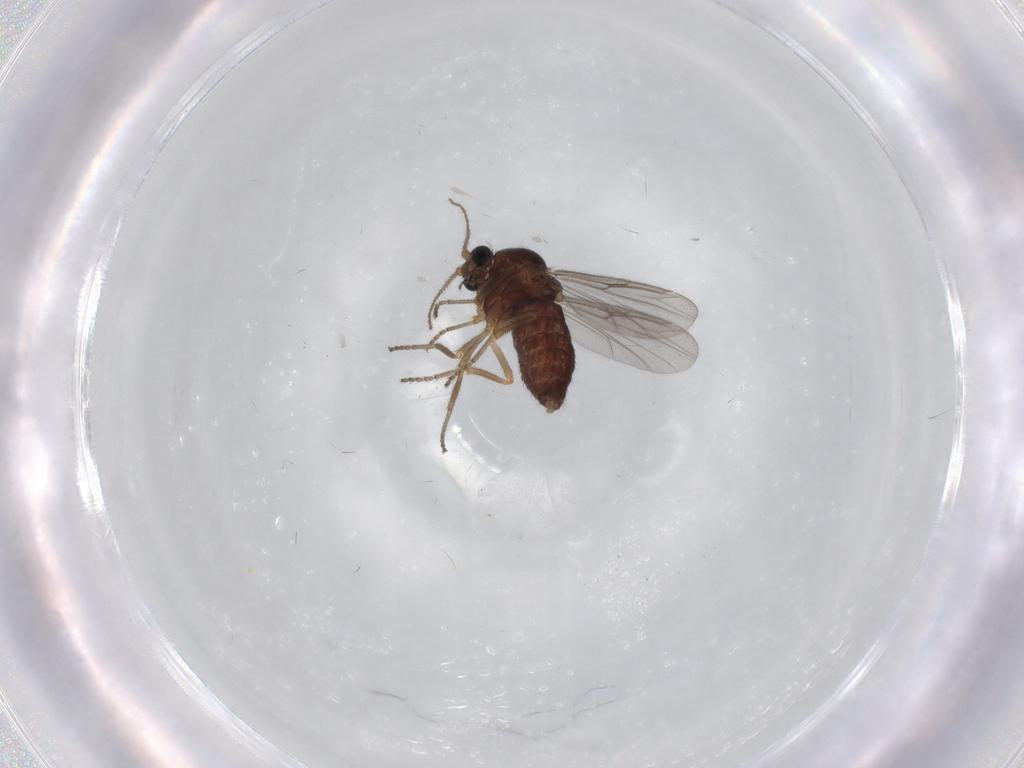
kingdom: Animalia
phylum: Arthropoda
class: Insecta
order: Diptera
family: Ceratopogonidae
